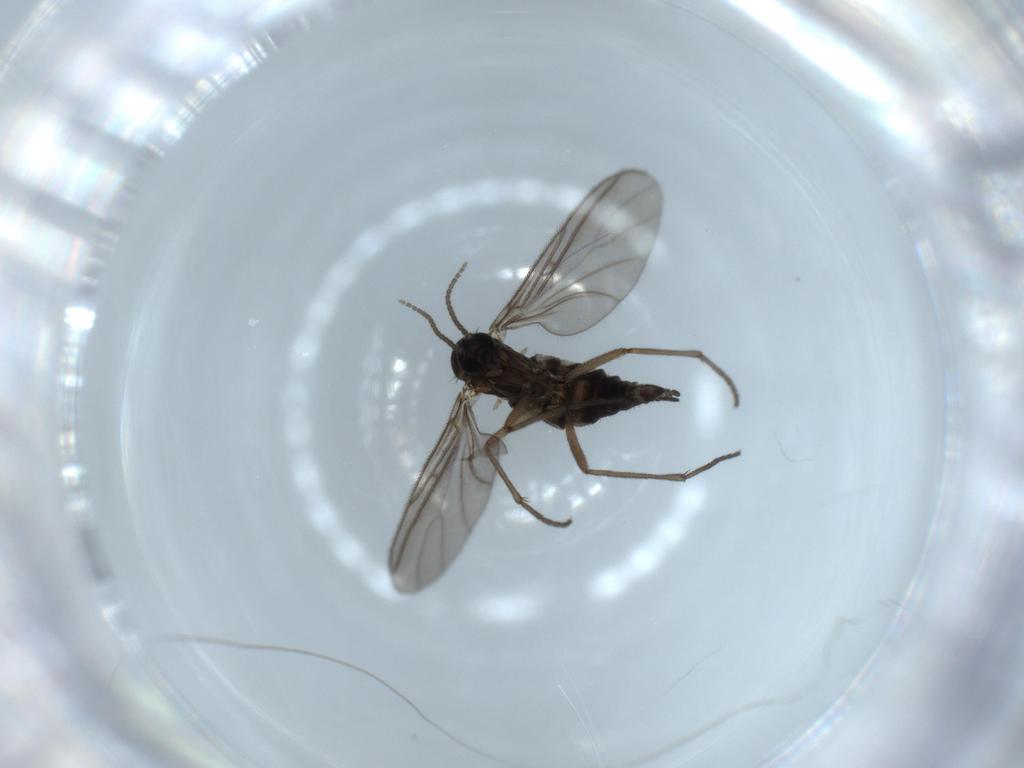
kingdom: Animalia
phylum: Arthropoda
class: Insecta
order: Diptera
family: Sciaridae
